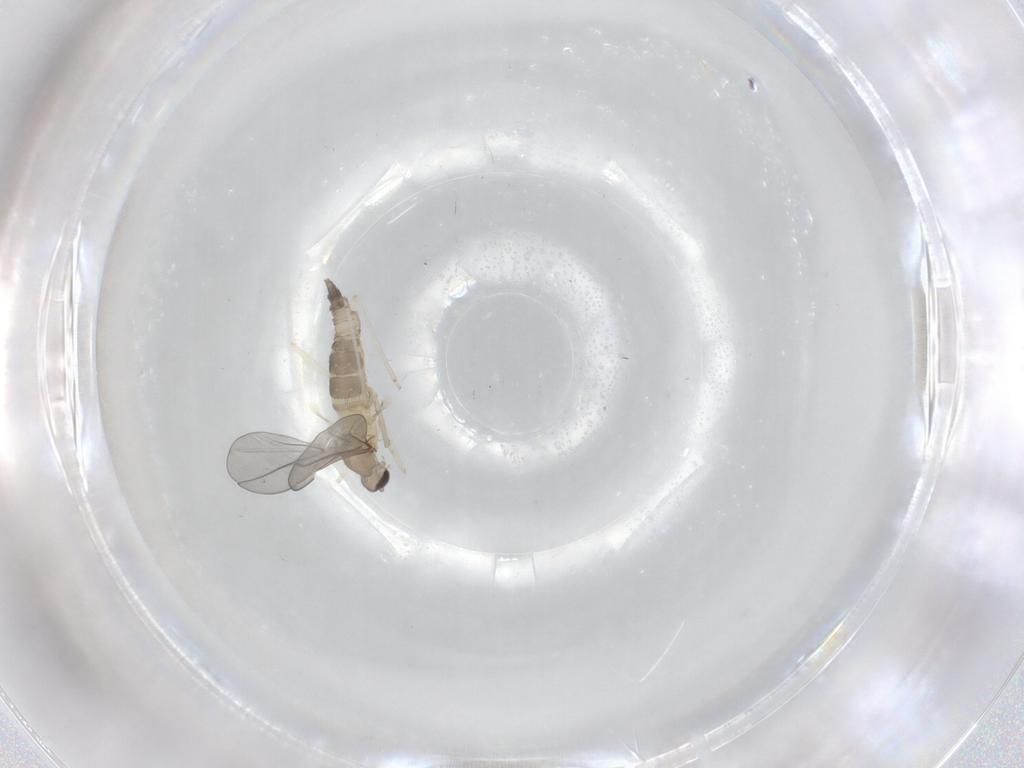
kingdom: Animalia
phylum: Arthropoda
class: Insecta
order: Diptera
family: Cecidomyiidae
